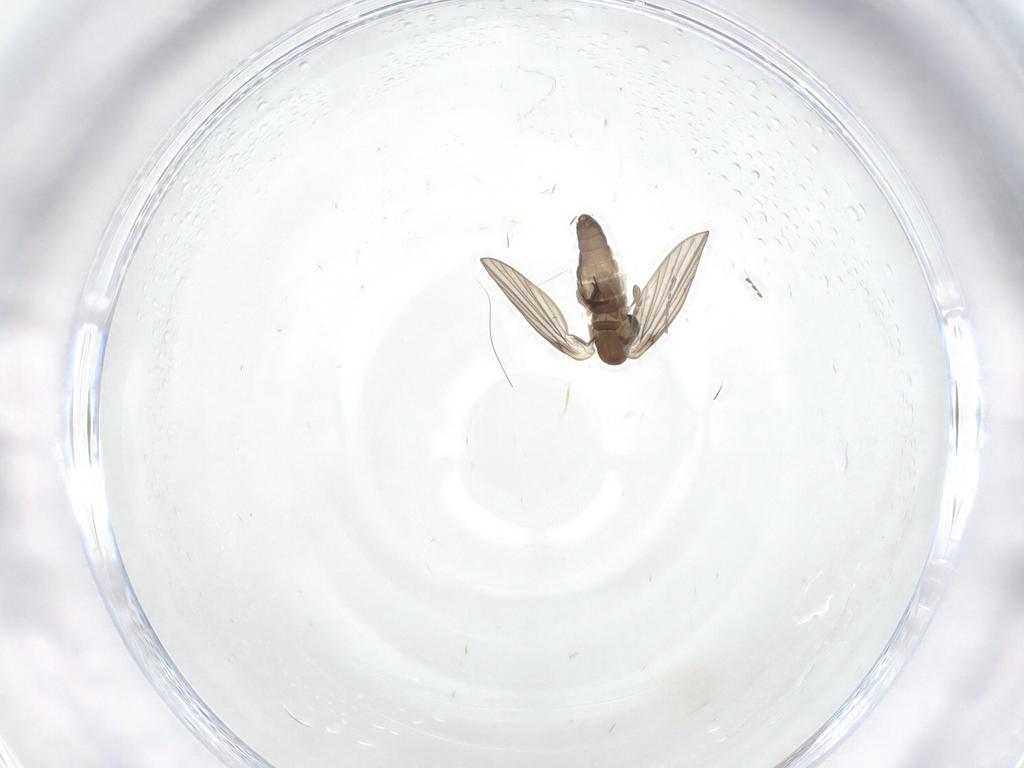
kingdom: Animalia
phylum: Arthropoda
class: Insecta
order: Diptera
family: Psychodidae
